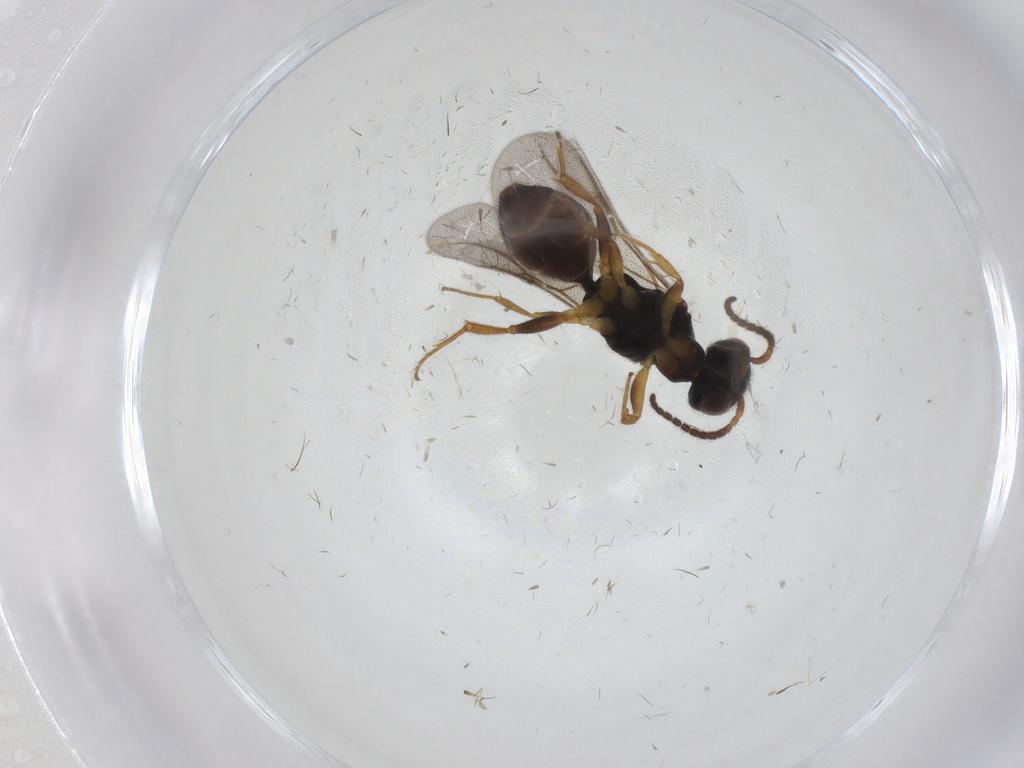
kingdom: Animalia
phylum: Arthropoda
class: Insecta
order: Hymenoptera
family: Bethylidae
